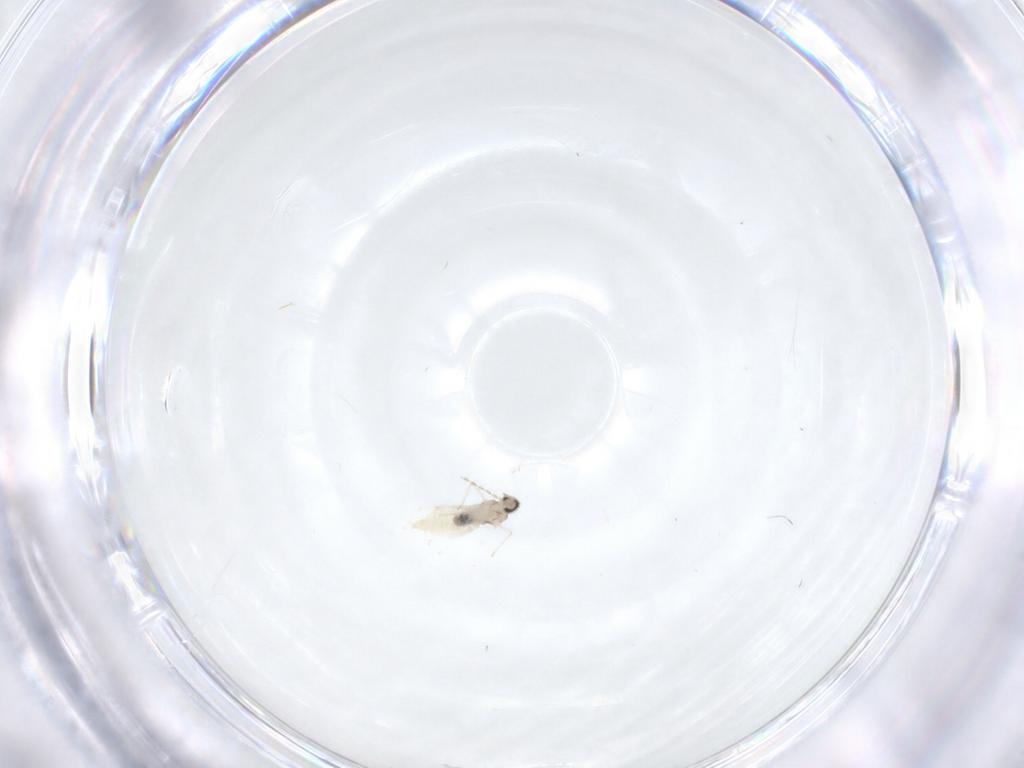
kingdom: Animalia
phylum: Arthropoda
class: Insecta
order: Diptera
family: Cecidomyiidae
